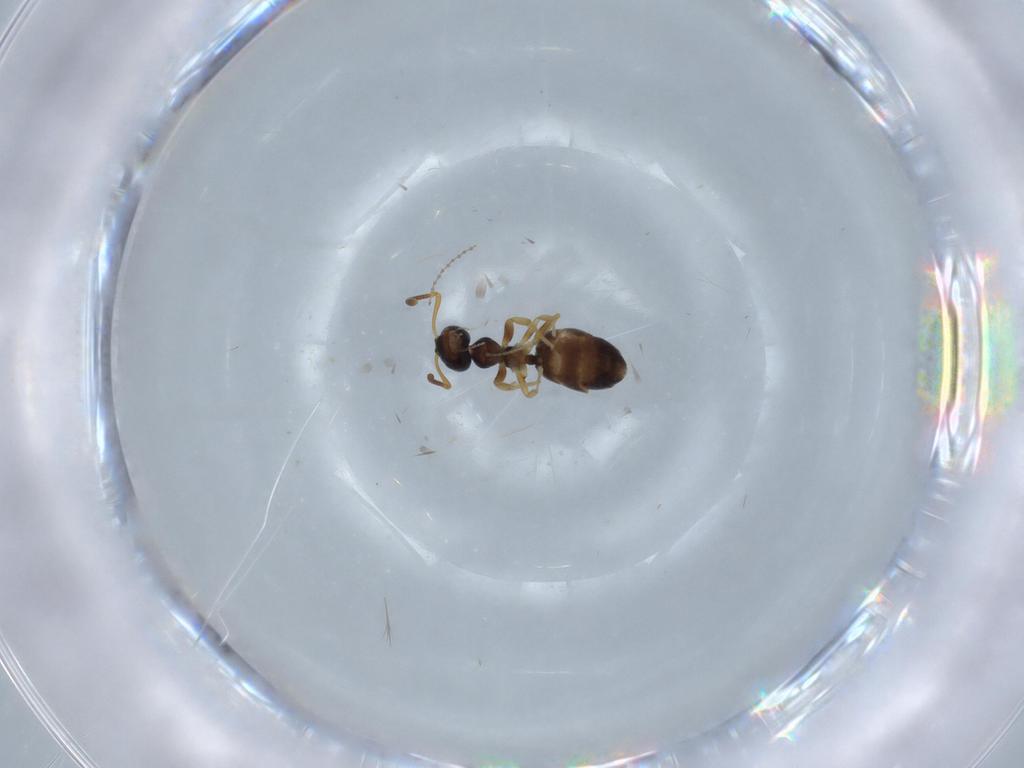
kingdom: Animalia
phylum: Arthropoda
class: Insecta
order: Hymenoptera
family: Formicidae
